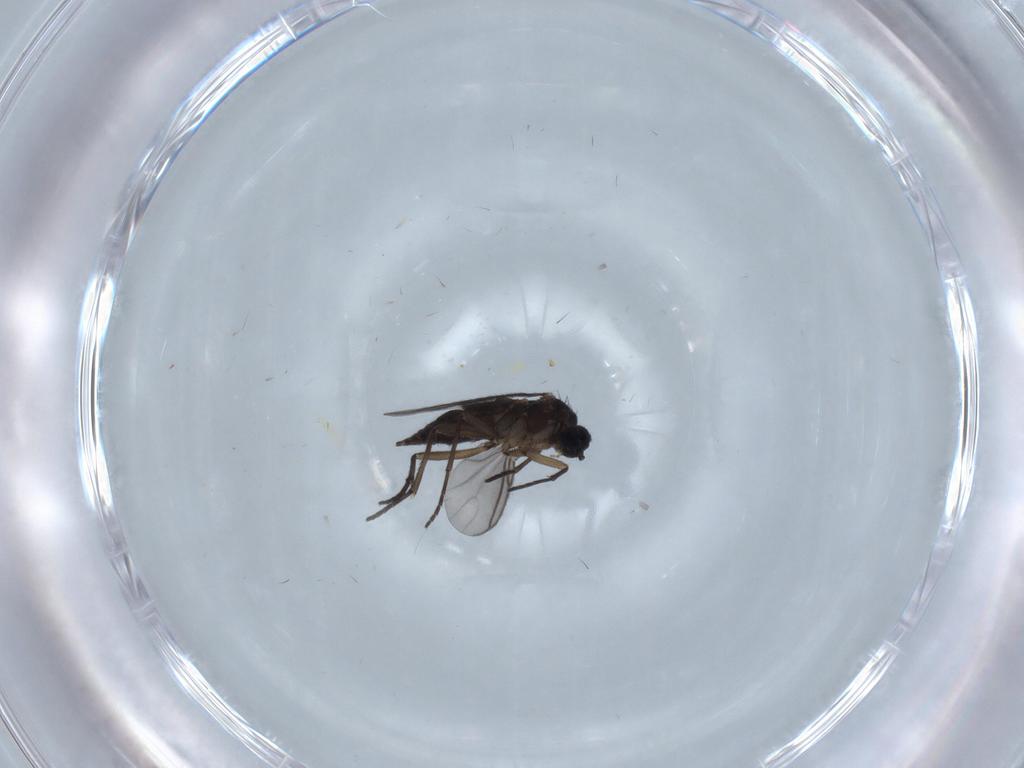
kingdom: Animalia
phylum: Arthropoda
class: Insecta
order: Diptera
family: Sciaridae
